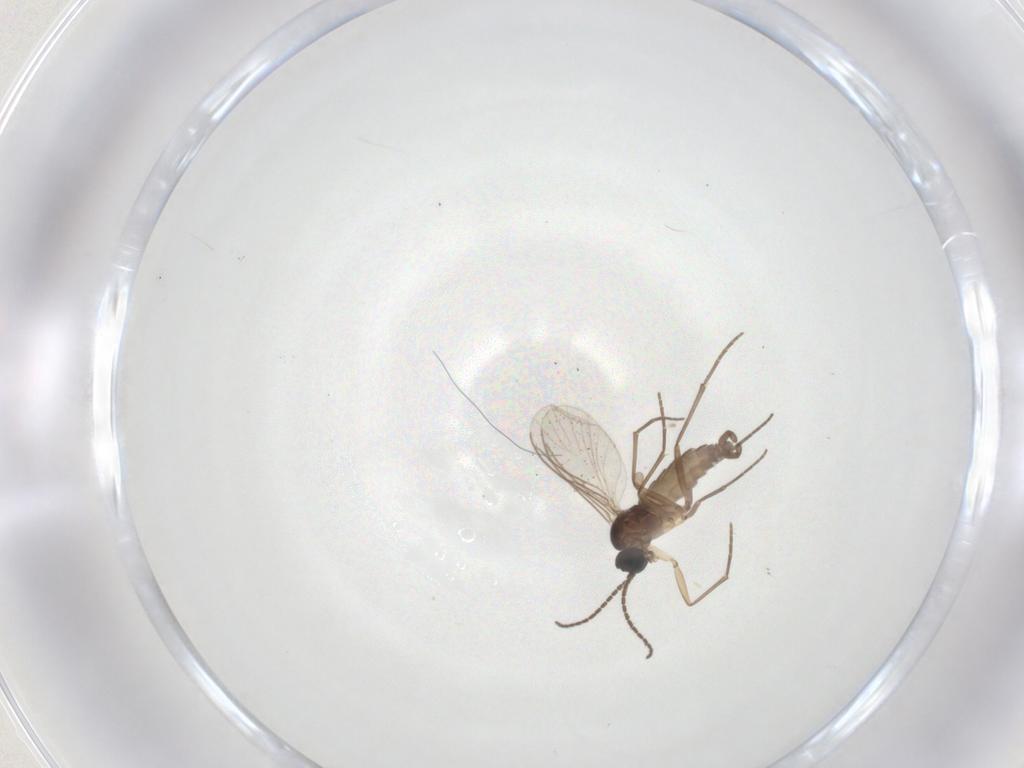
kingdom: Animalia
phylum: Arthropoda
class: Insecta
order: Diptera
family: Sciaridae
